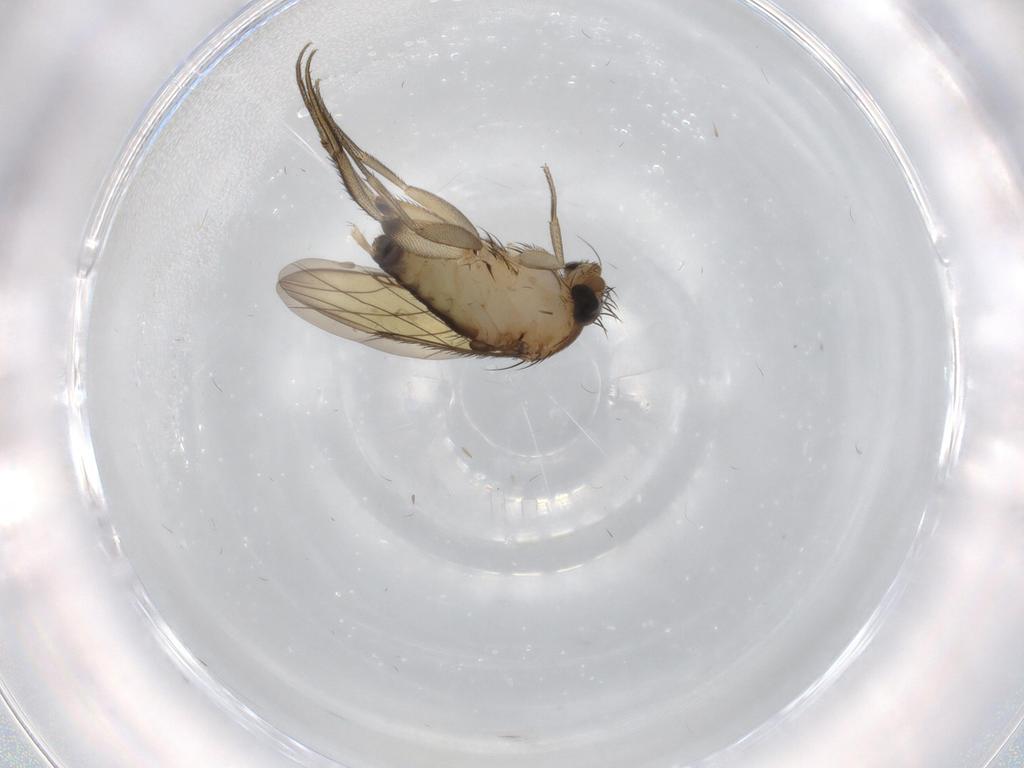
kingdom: Animalia
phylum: Arthropoda
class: Insecta
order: Diptera
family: Phoridae
